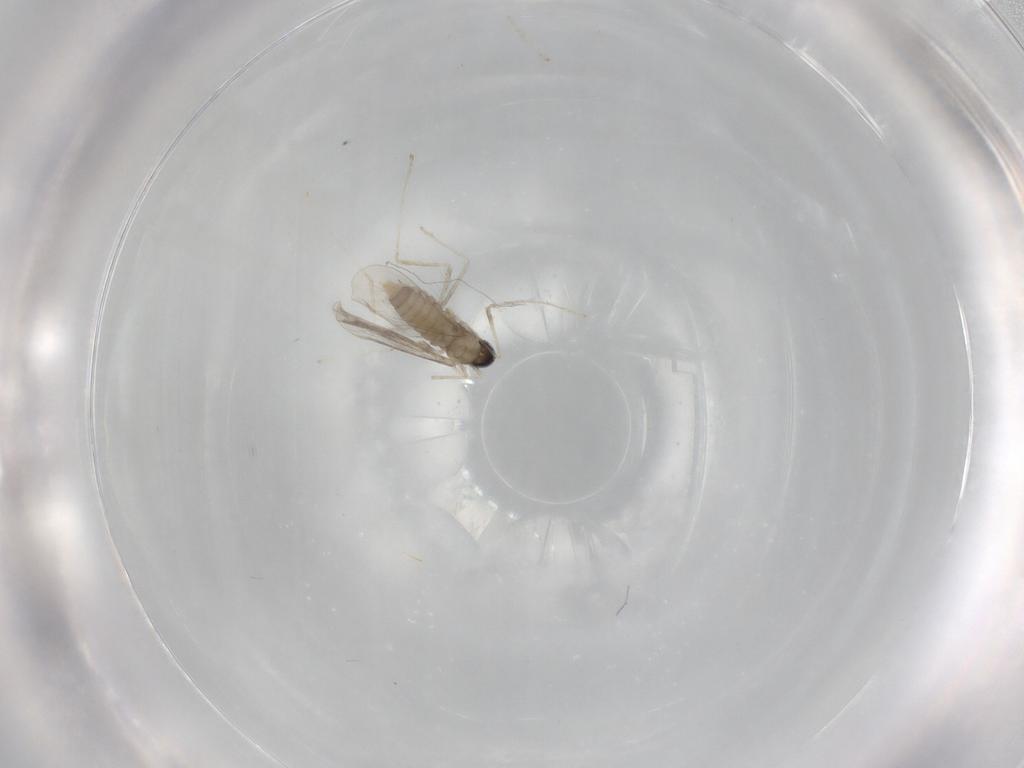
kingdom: Animalia
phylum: Arthropoda
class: Insecta
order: Diptera
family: Cecidomyiidae
